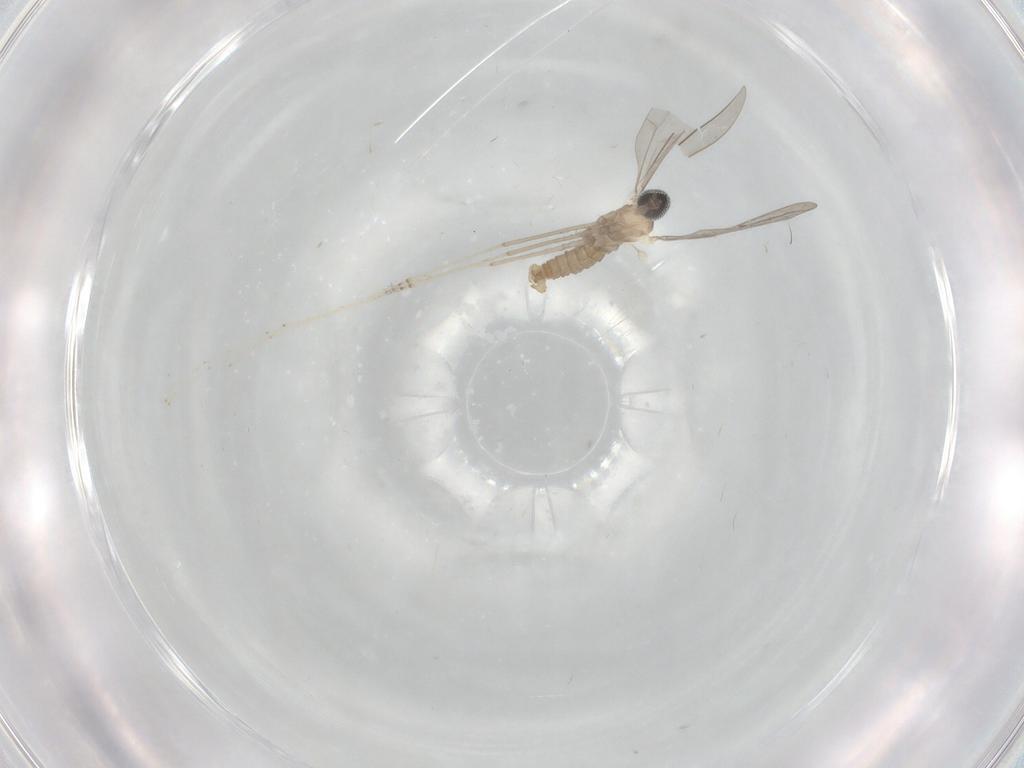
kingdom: Animalia
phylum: Arthropoda
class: Insecta
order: Diptera
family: Cecidomyiidae
